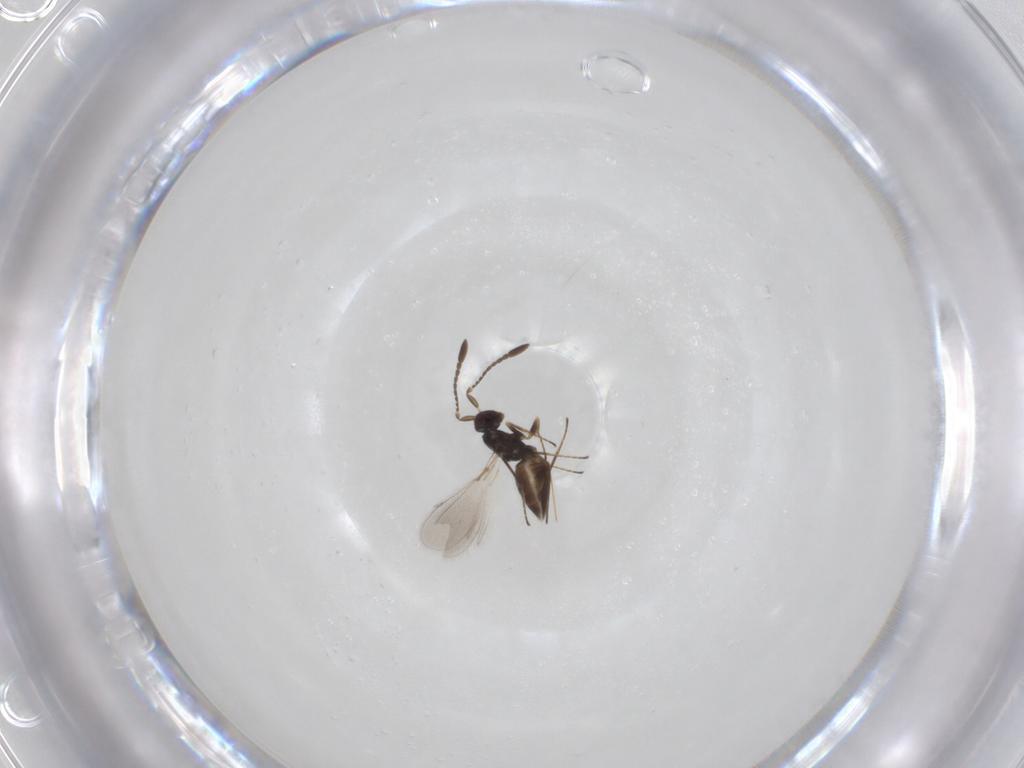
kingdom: Animalia
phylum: Arthropoda
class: Insecta
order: Hymenoptera
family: Mymaridae
